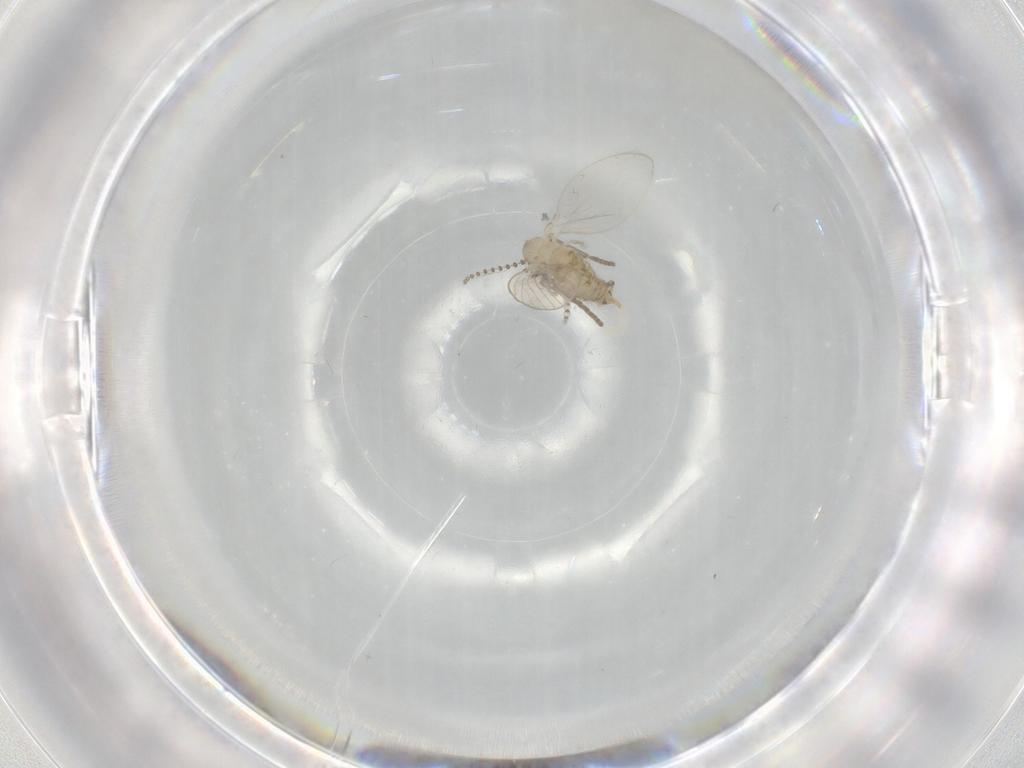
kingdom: Animalia
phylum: Arthropoda
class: Insecta
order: Diptera
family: Psychodidae
